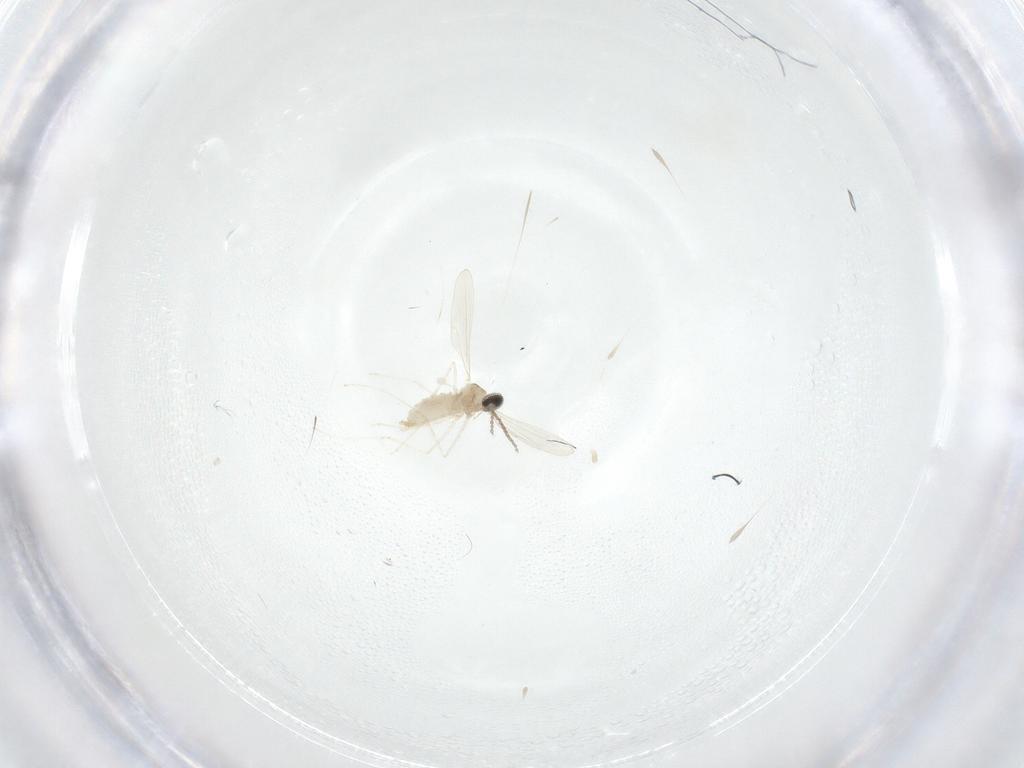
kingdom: Animalia
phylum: Arthropoda
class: Insecta
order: Diptera
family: Cecidomyiidae
